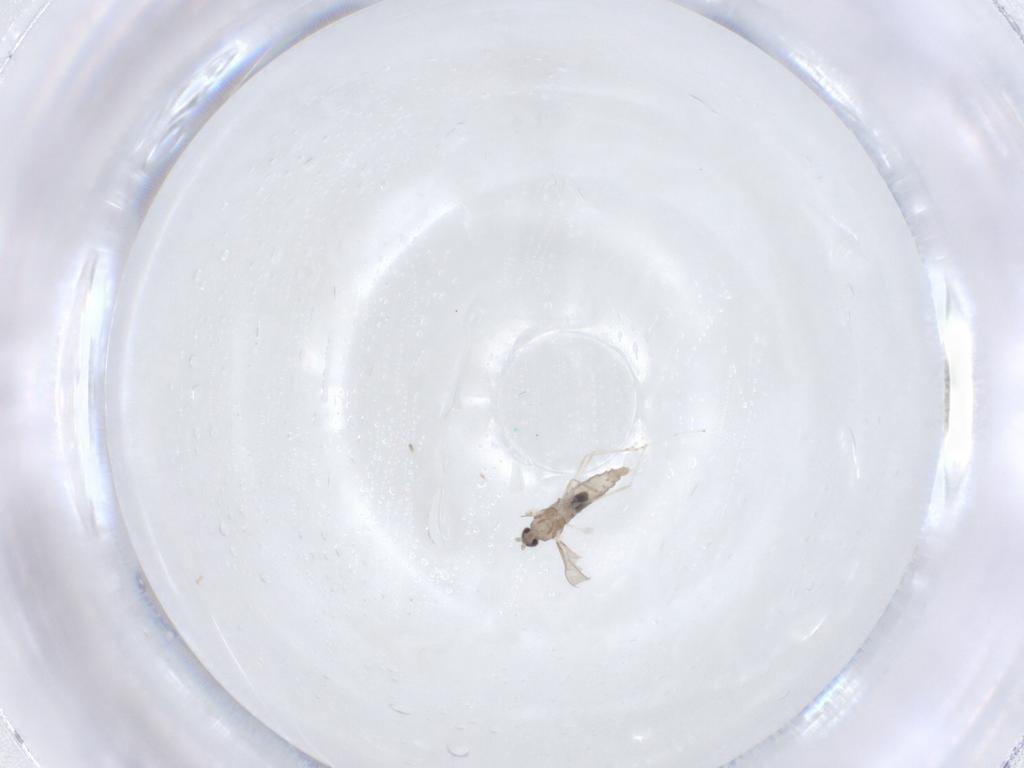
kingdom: Animalia
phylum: Arthropoda
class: Insecta
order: Diptera
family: Cecidomyiidae
